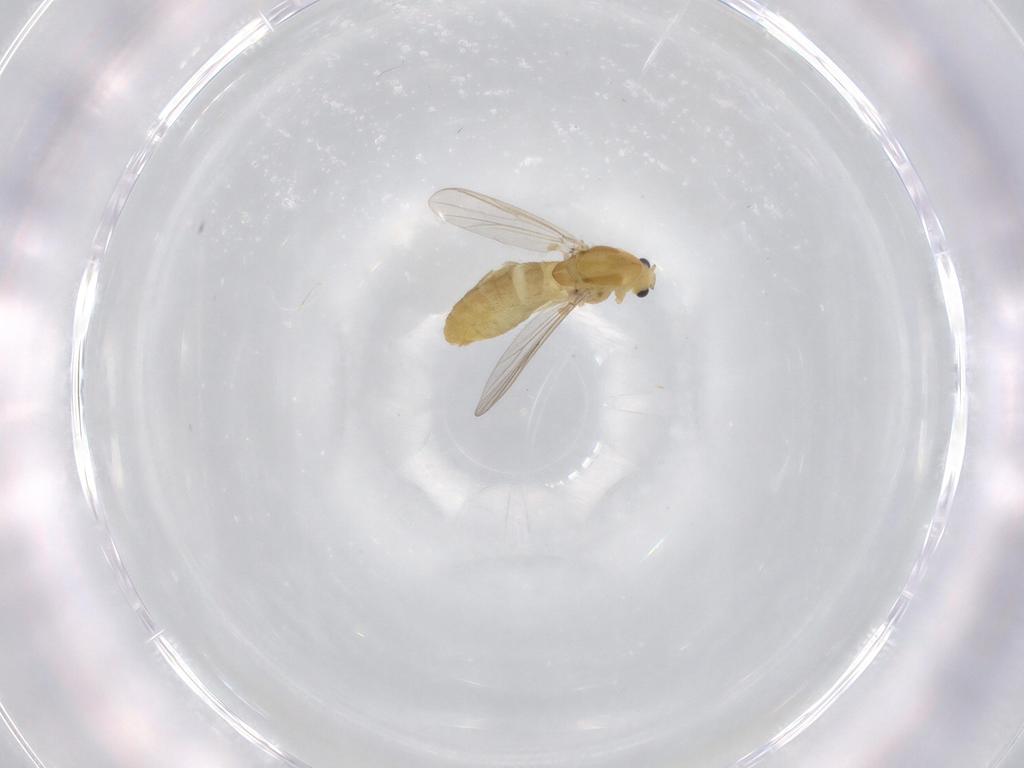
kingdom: Animalia
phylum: Arthropoda
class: Insecta
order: Diptera
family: Chironomidae
